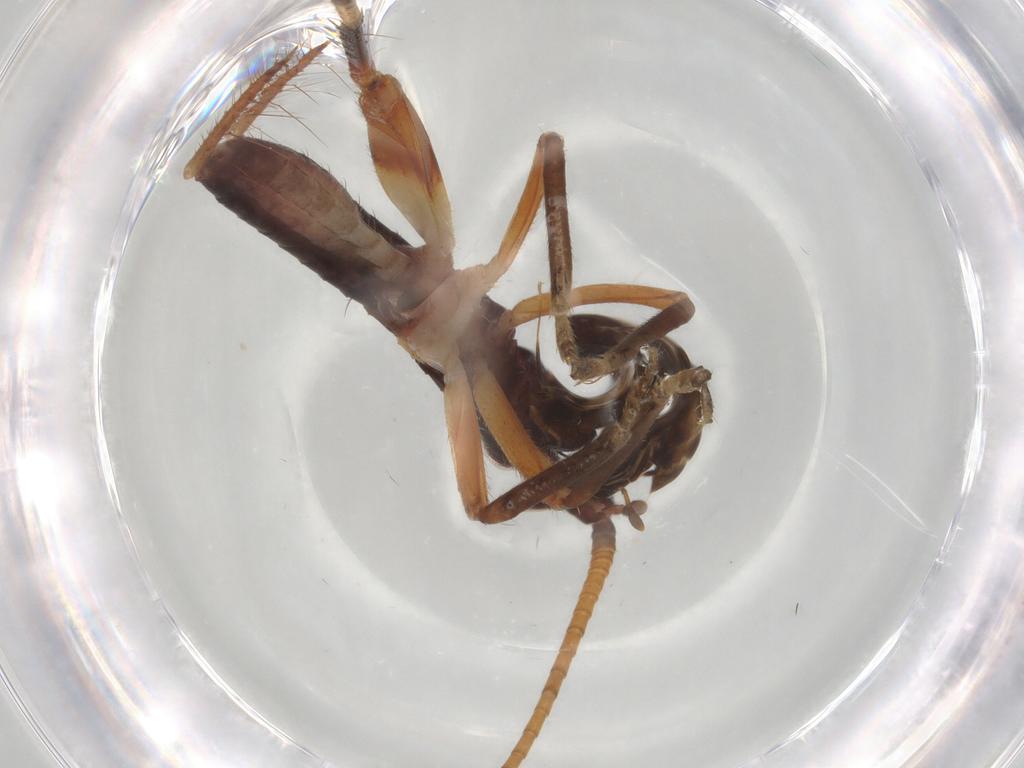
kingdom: Animalia
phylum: Arthropoda
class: Insecta
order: Orthoptera
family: Gryllidae
